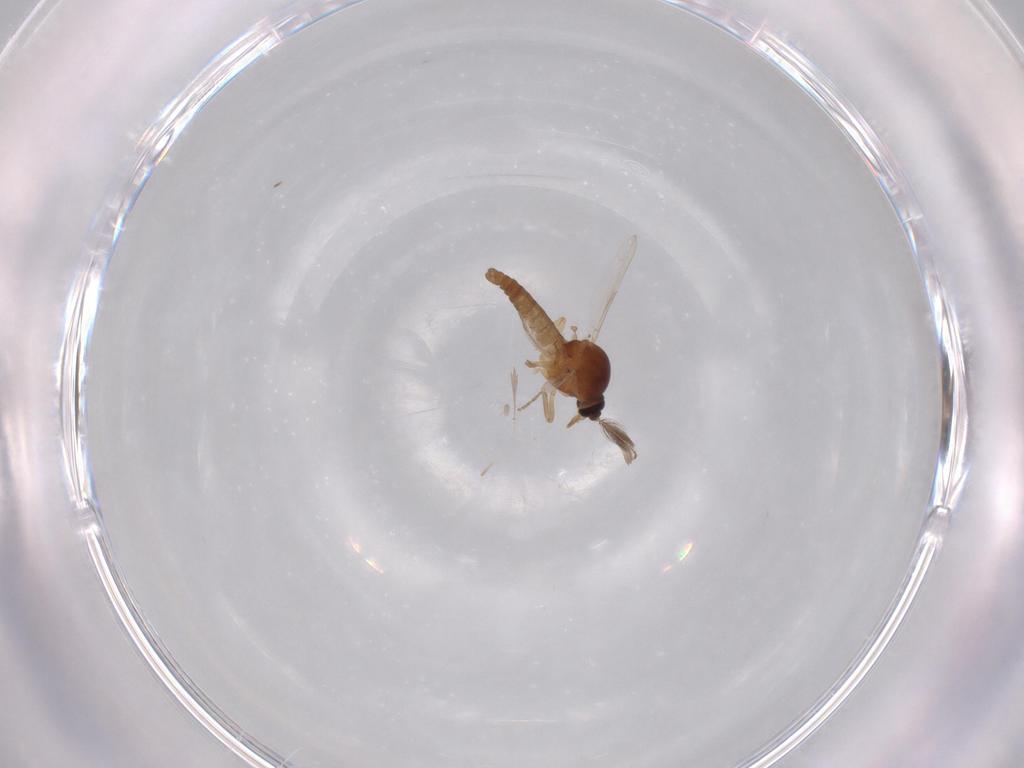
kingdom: Animalia
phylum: Arthropoda
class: Insecta
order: Diptera
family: Ceratopogonidae
